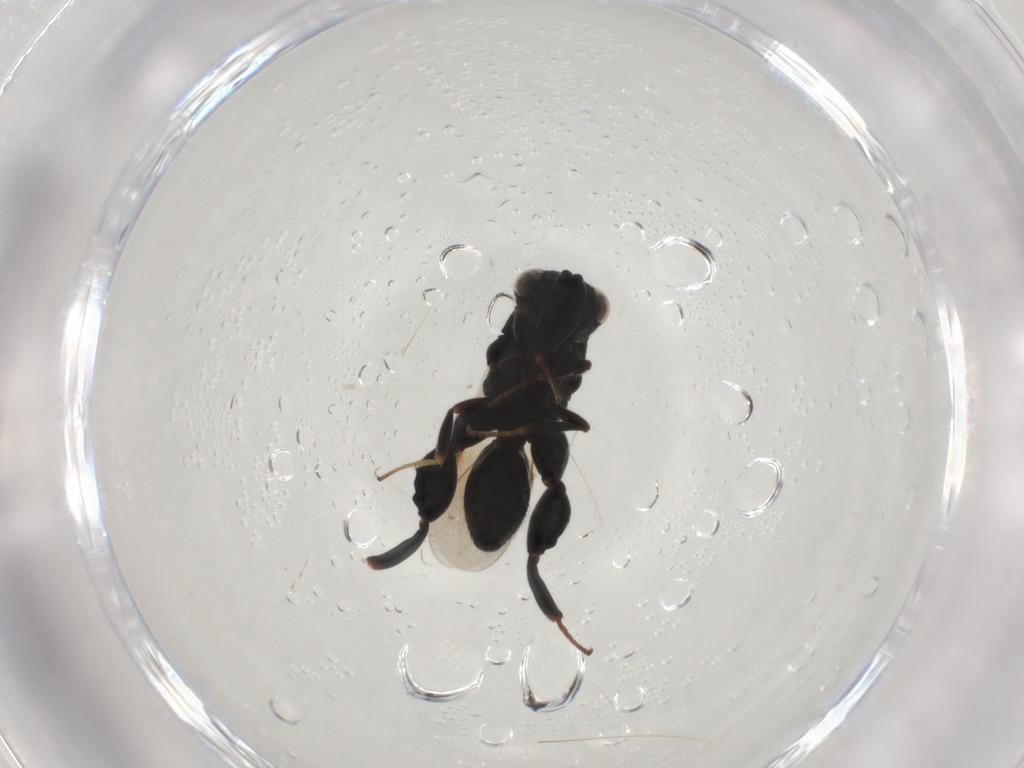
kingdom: Animalia
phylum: Arthropoda
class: Insecta
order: Hymenoptera
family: Chalcididae
